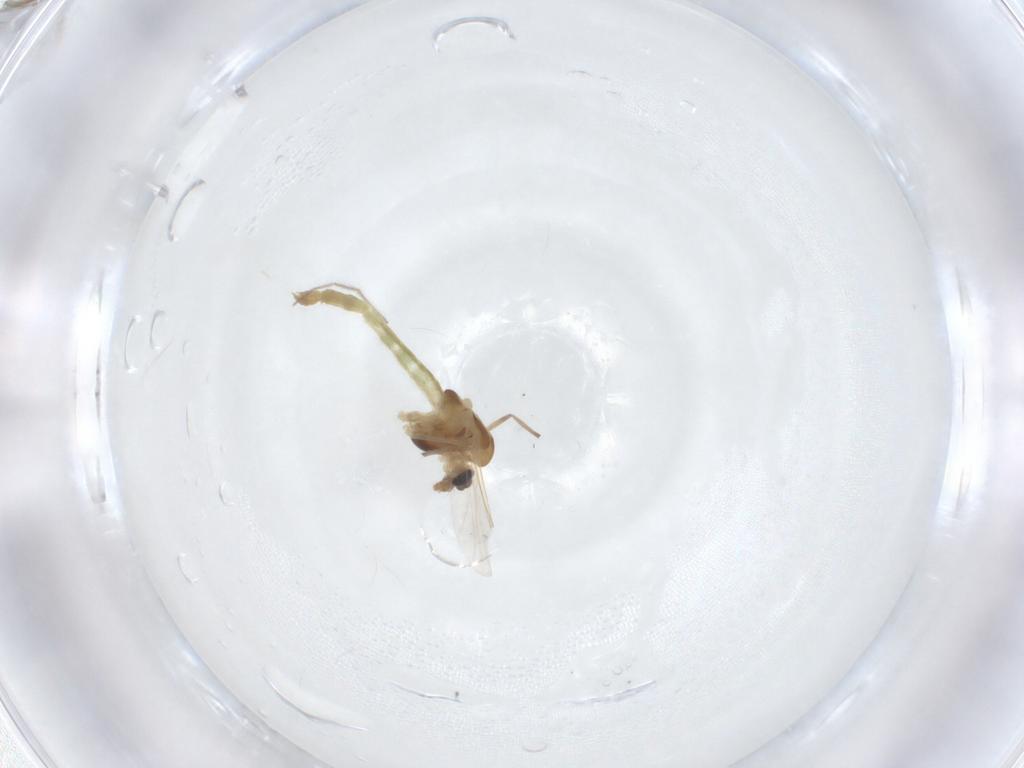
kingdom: Animalia
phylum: Arthropoda
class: Insecta
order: Diptera
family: Chironomidae
